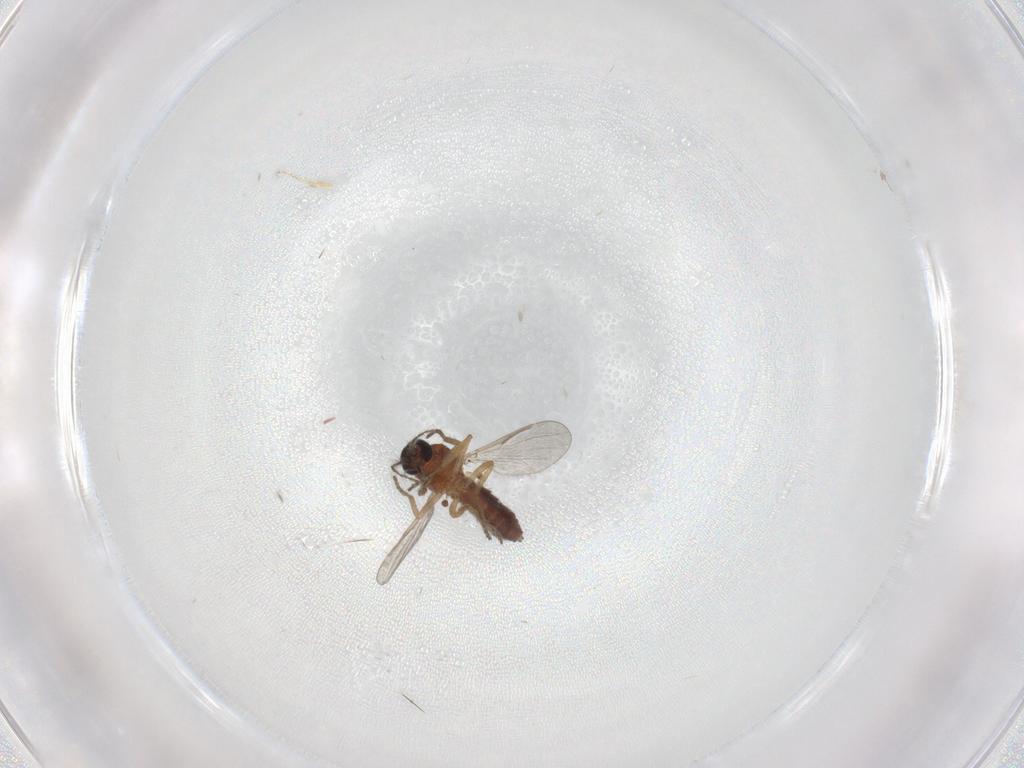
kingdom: Animalia
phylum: Arthropoda
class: Insecta
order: Diptera
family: Ceratopogonidae
